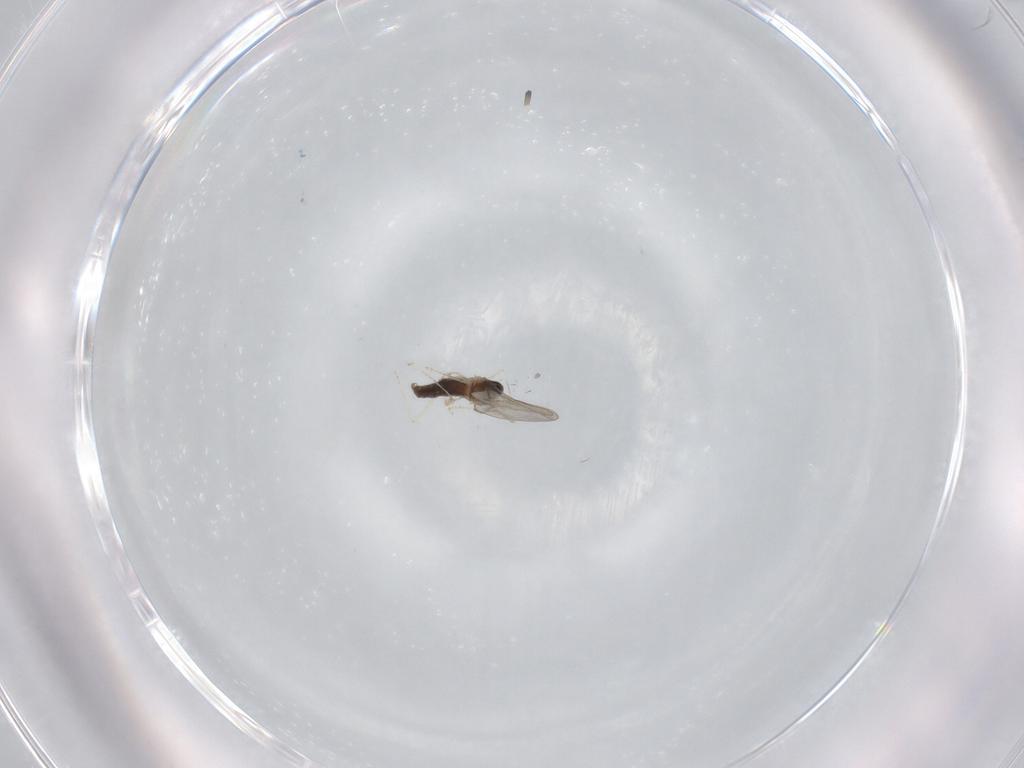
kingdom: Animalia
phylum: Arthropoda
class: Insecta
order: Diptera
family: Cecidomyiidae
